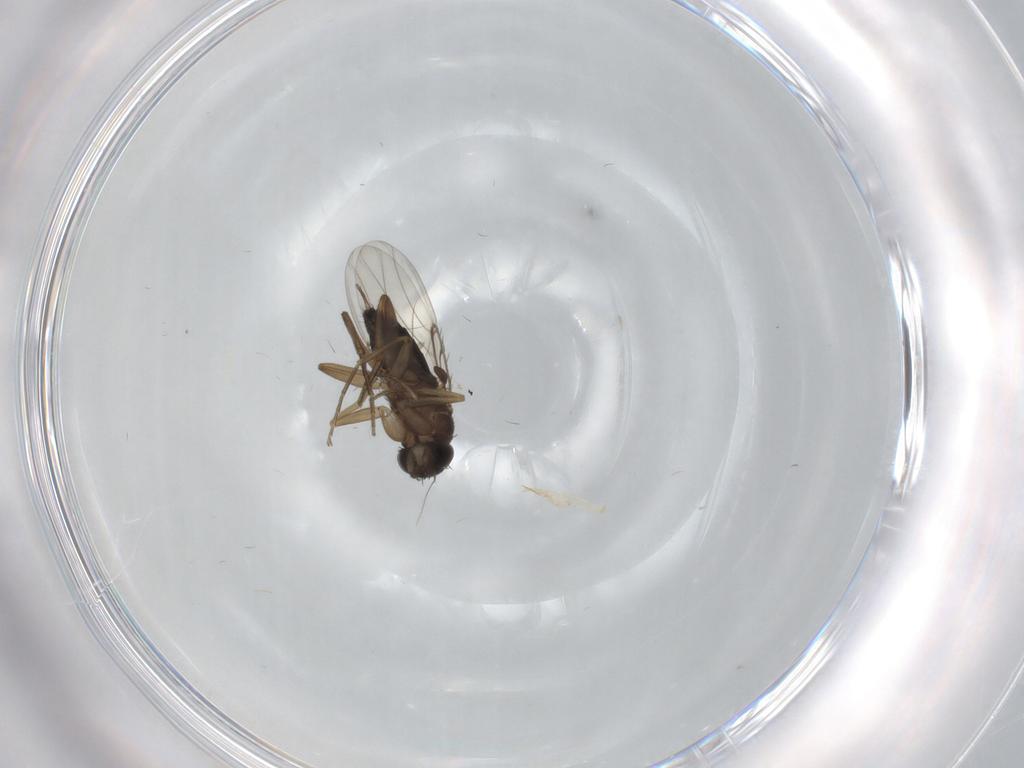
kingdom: Animalia
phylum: Arthropoda
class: Insecta
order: Diptera
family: Phoridae
